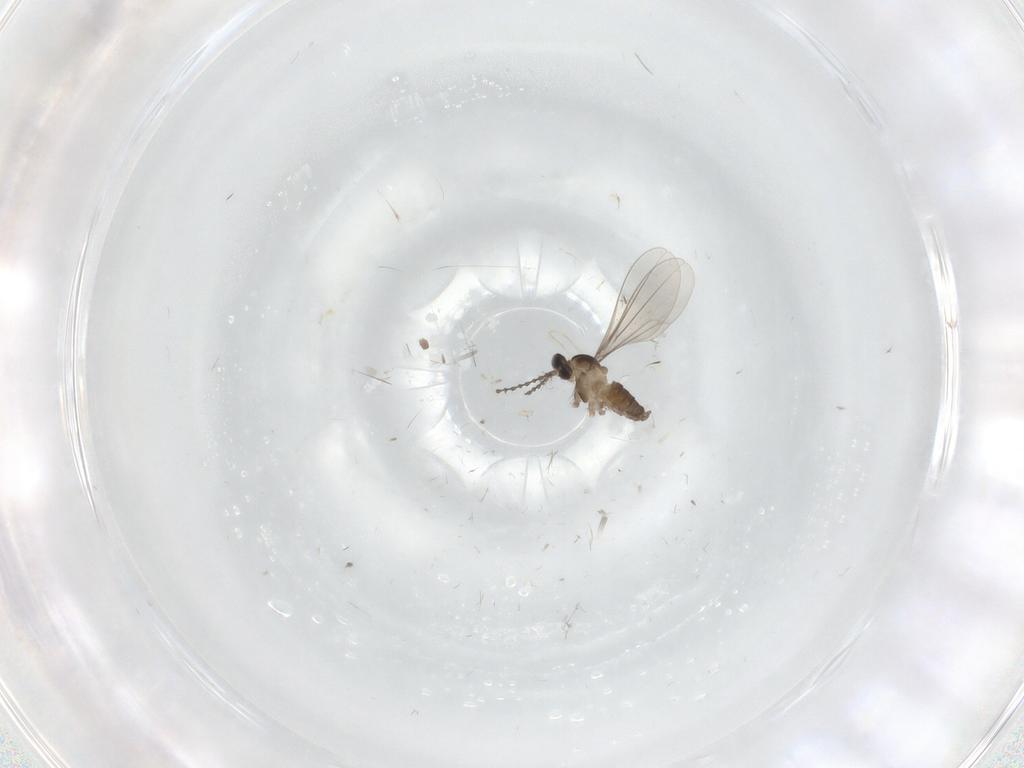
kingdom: Animalia
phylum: Arthropoda
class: Insecta
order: Diptera
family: Cecidomyiidae
